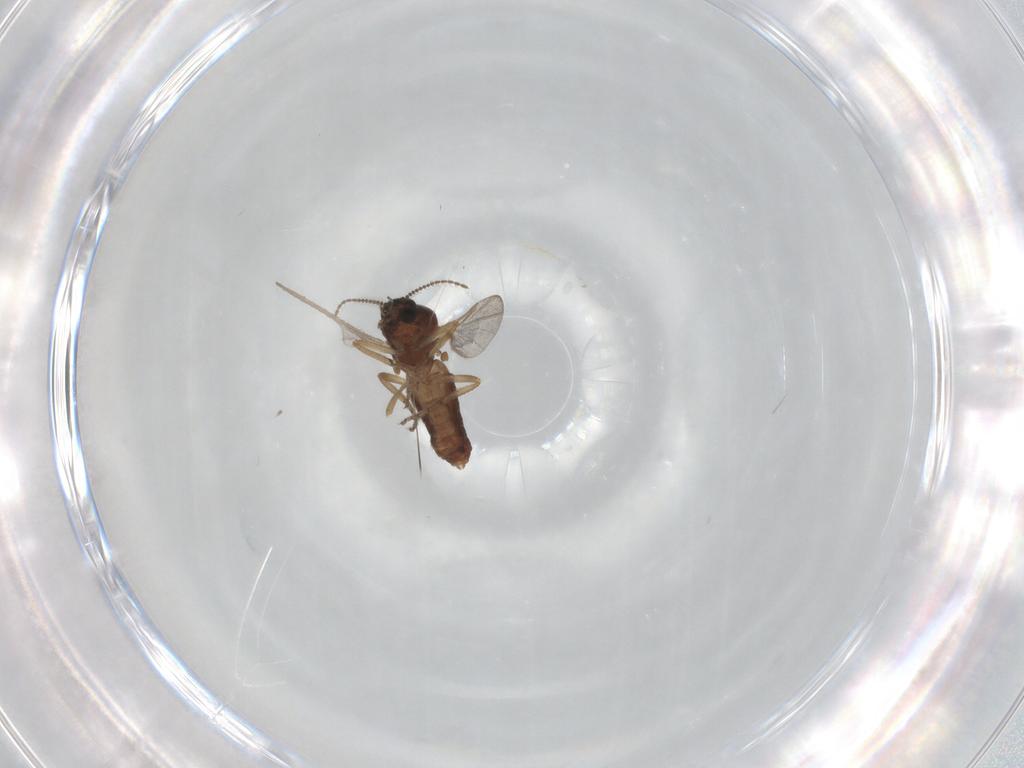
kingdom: Animalia
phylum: Arthropoda
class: Insecta
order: Diptera
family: Ceratopogonidae
